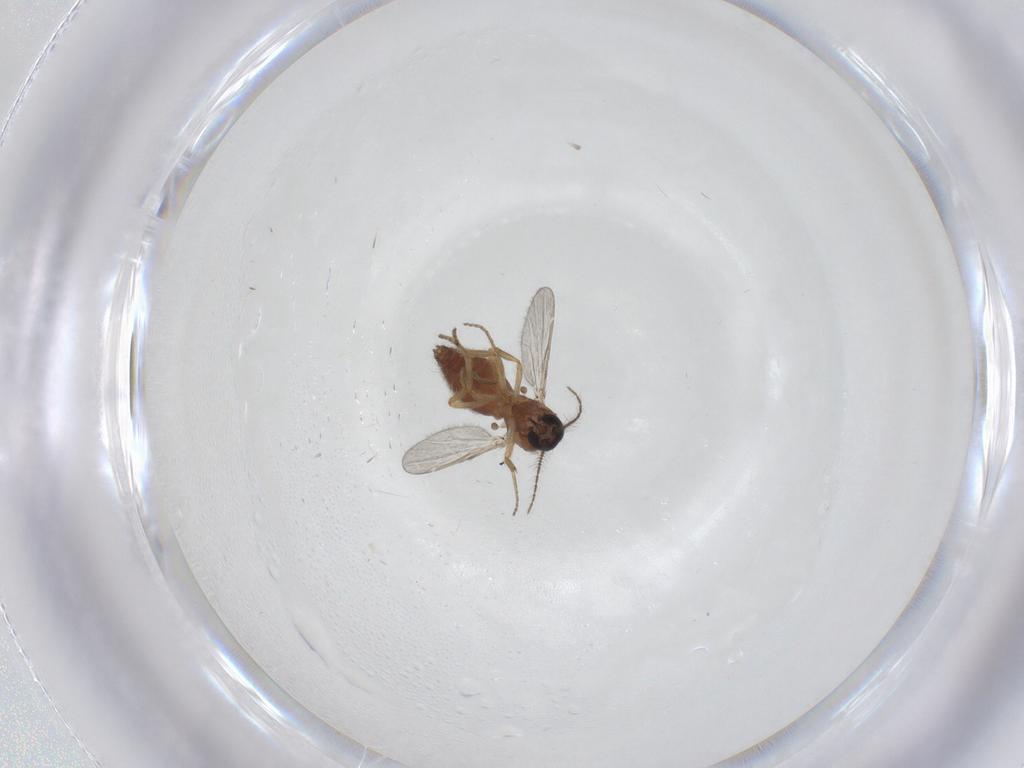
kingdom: Animalia
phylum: Arthropoda
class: Insecta
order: Diptera
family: Ceratopogonidae
